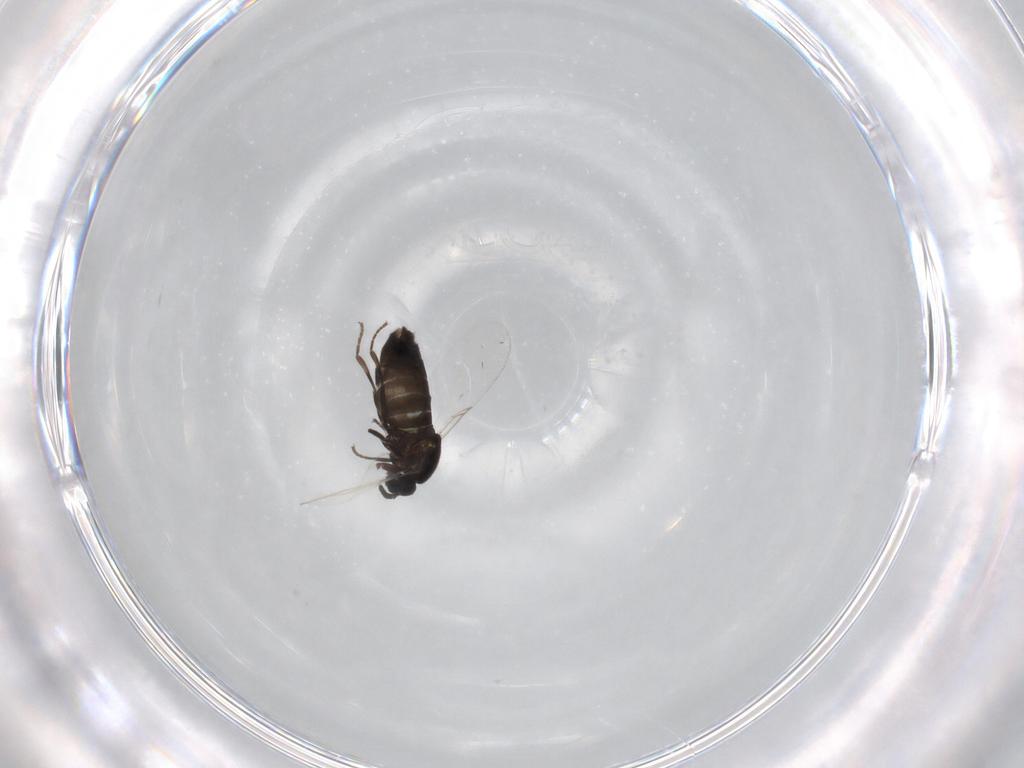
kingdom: Animalia
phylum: Arthropoda
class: Insecta
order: Diptera
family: Scatopsidae
